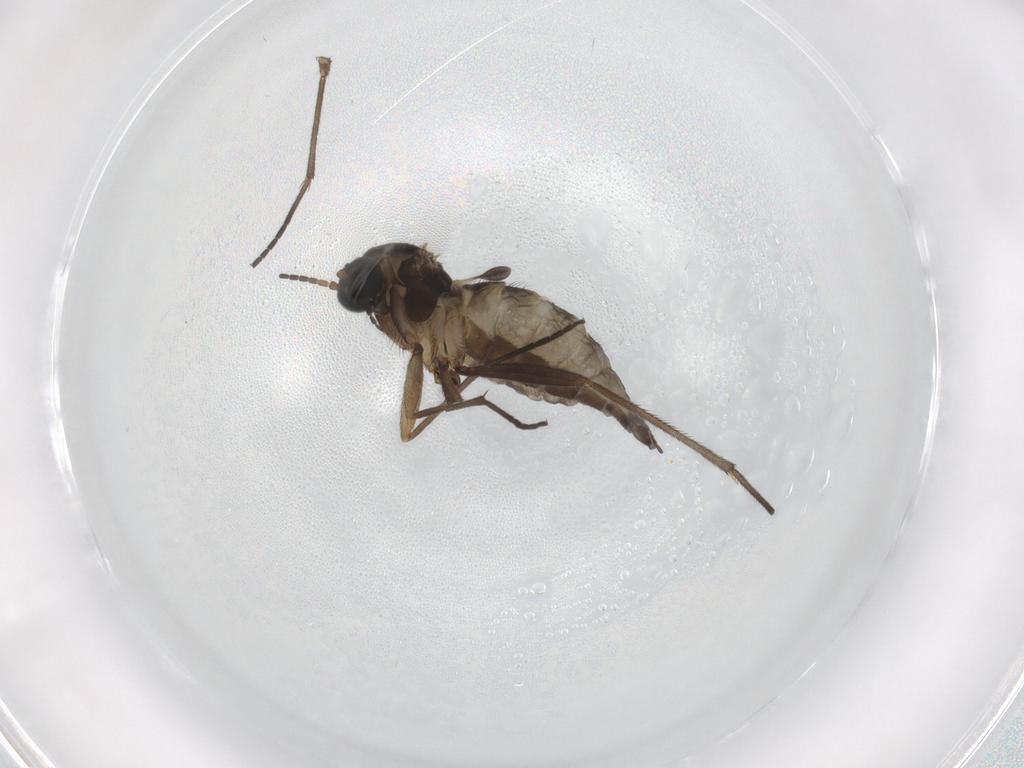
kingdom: Animalia
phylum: Arthropoda
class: Insecta
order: Diptera
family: Sciaridae
